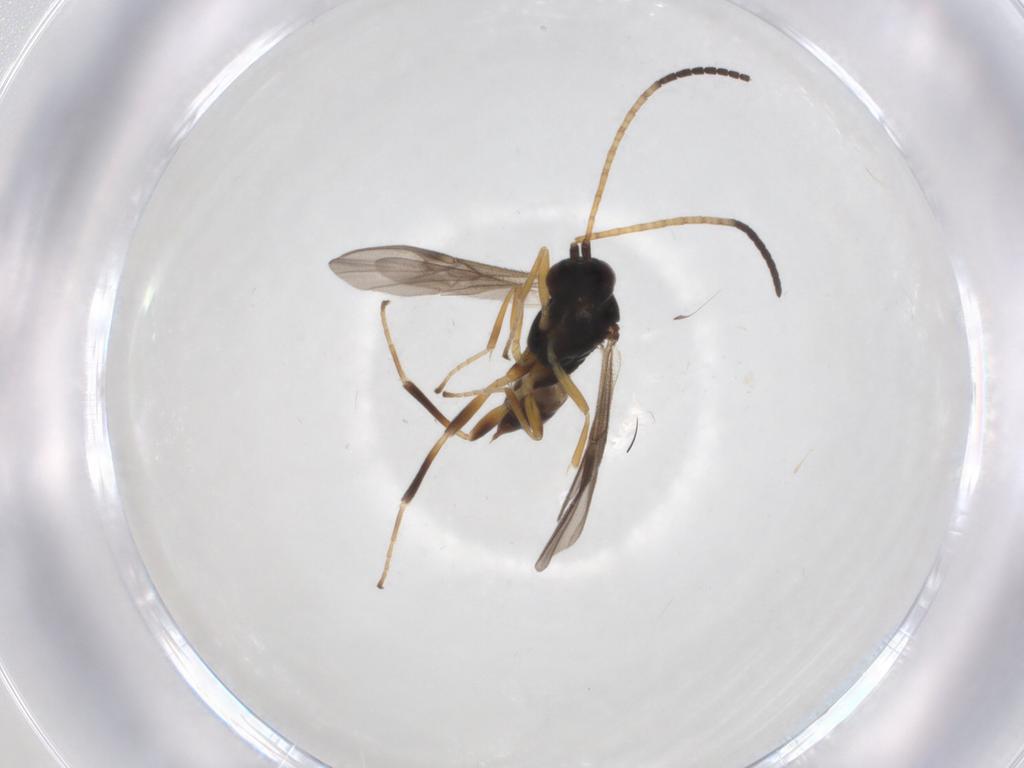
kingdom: Animalia
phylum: Arthropoda
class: Insecta
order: Hymenoptera
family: Braconidae
